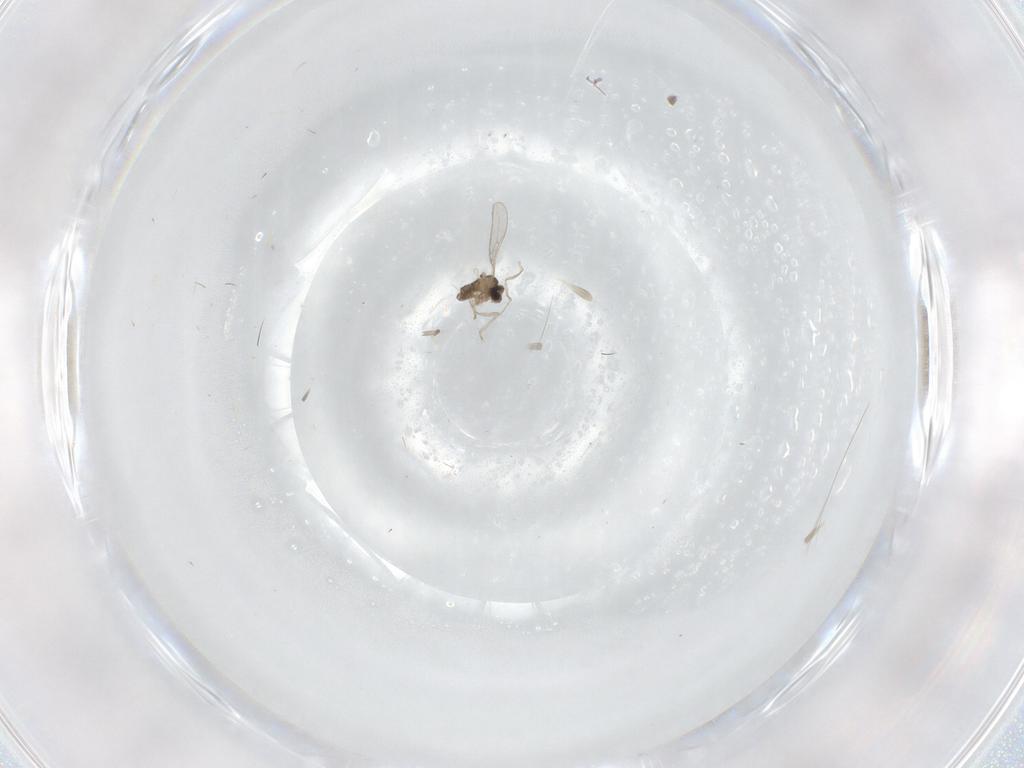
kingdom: Animalia
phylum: Arthropoda
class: Insecta
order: Diptera
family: Cecidomyiidae
